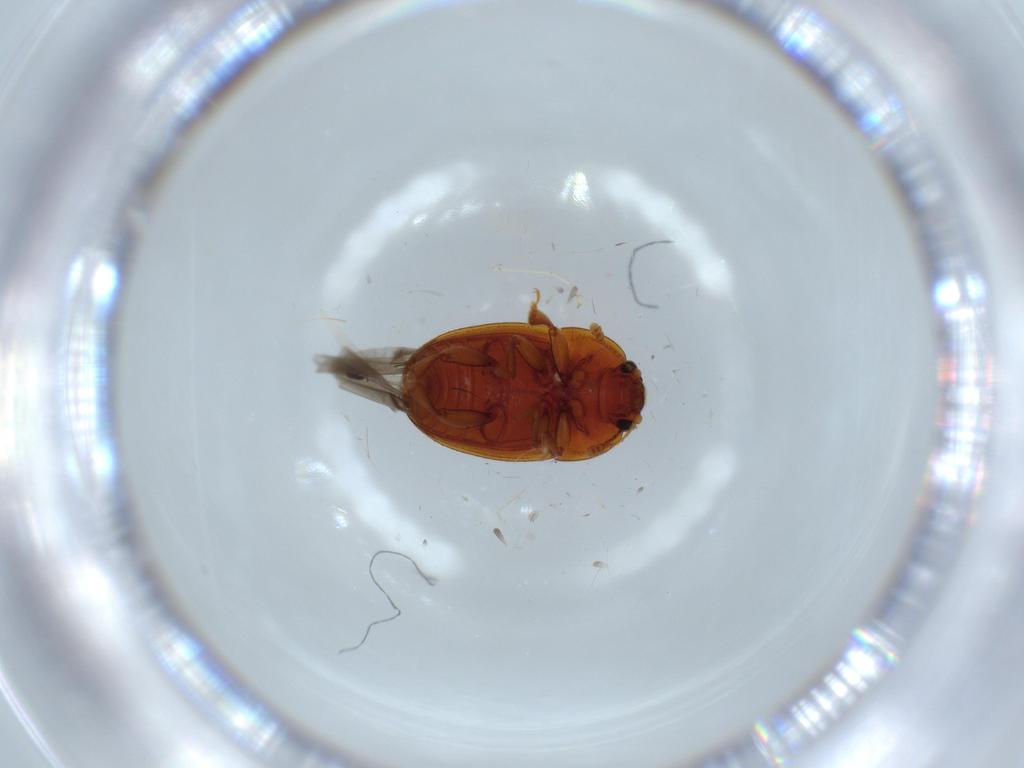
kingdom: Animalia
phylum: Arthropoda
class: Insecta
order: Coleoptera
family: Nitidulidae
